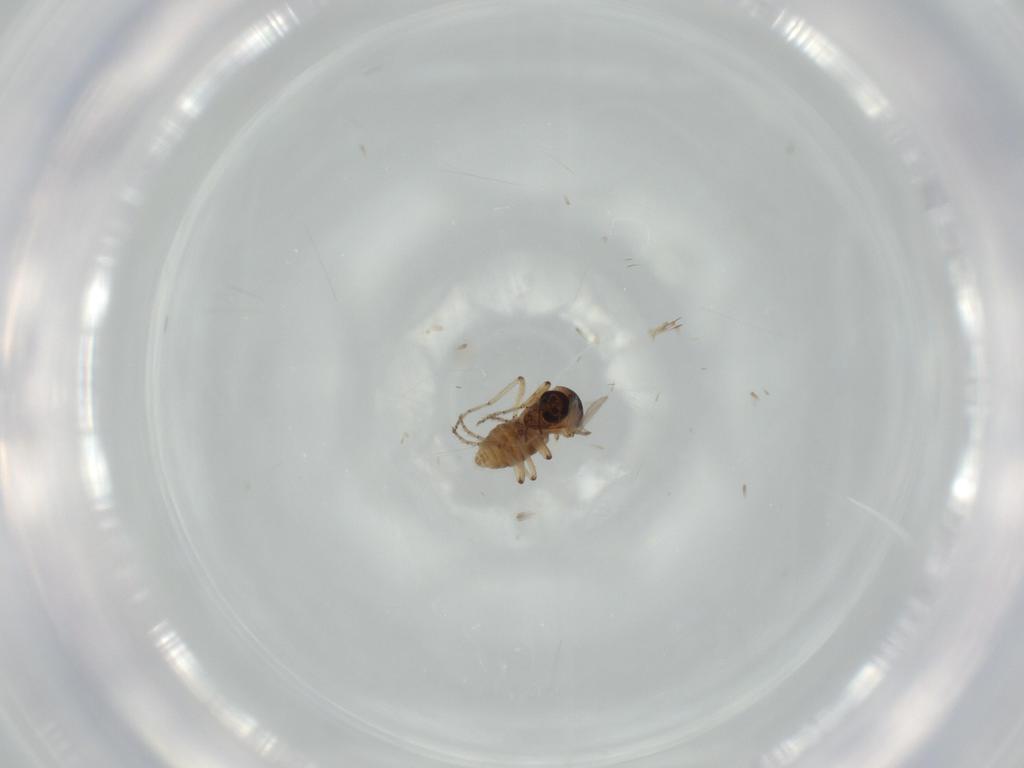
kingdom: Animalia
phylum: Arthropoda
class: Insecta
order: Diptera
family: Ceratopogonidae
